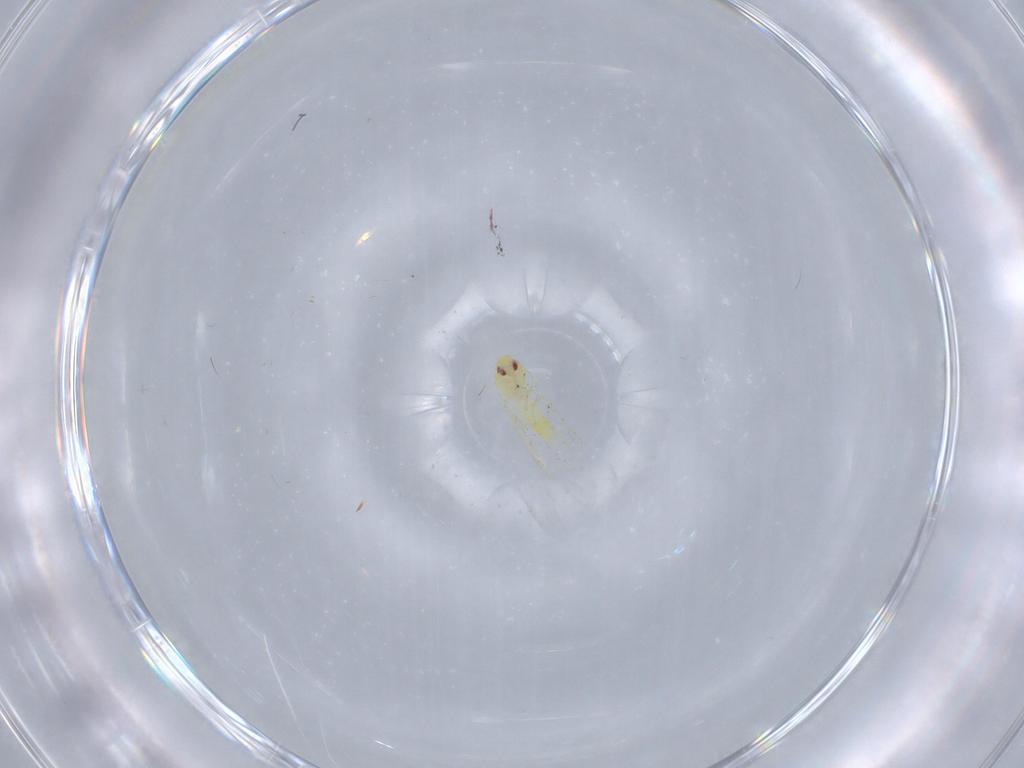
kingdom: Animalia
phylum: Arthropoda
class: Insecta
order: Hemiptera
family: Aleyrodidae
